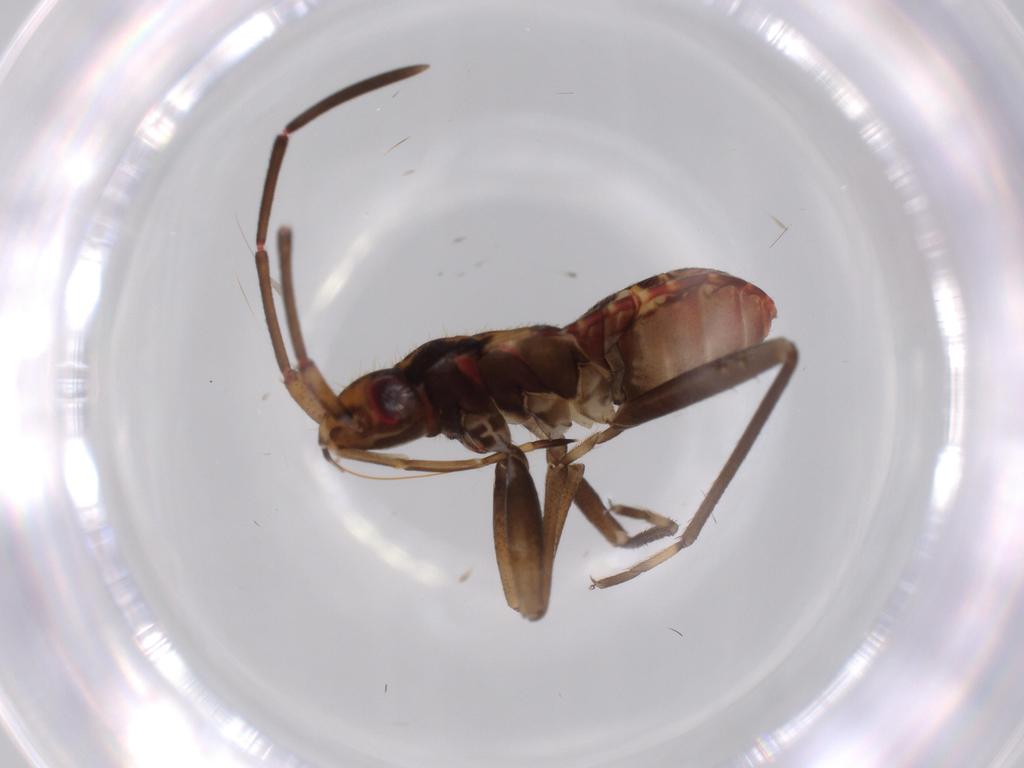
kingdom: Animalia
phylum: Arthropoda
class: Insecta
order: Hemiptera
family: Rhyparochromidae
